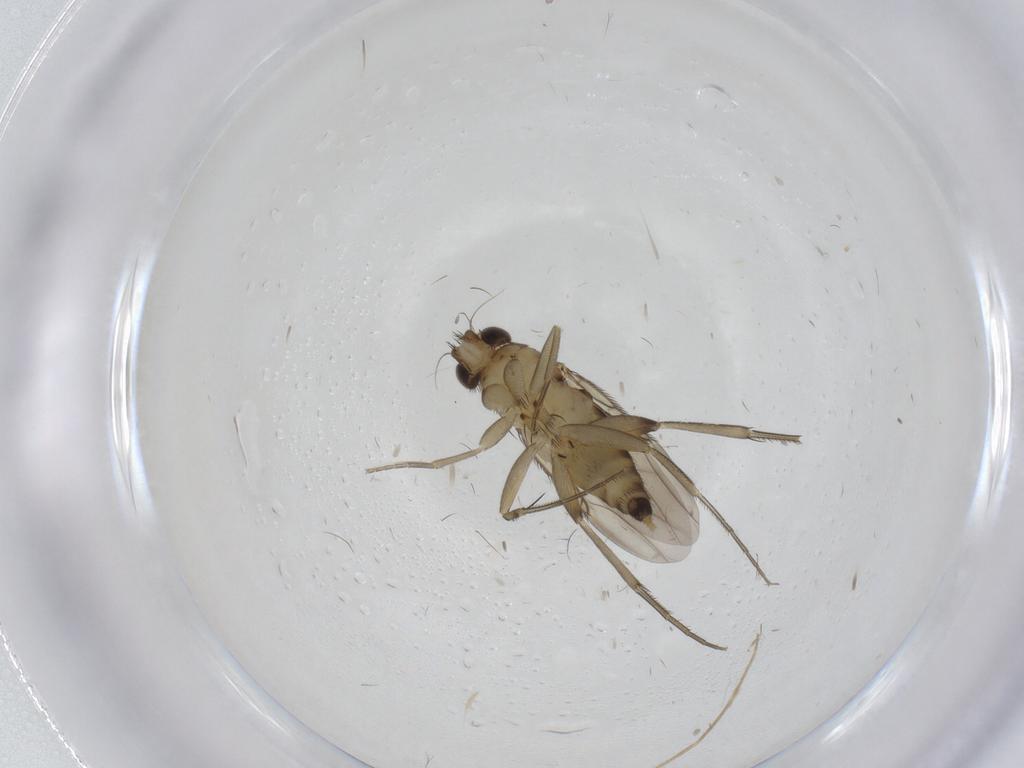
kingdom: Animalia
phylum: Arthropoda
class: Insecta
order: Diptera
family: Phoridae
